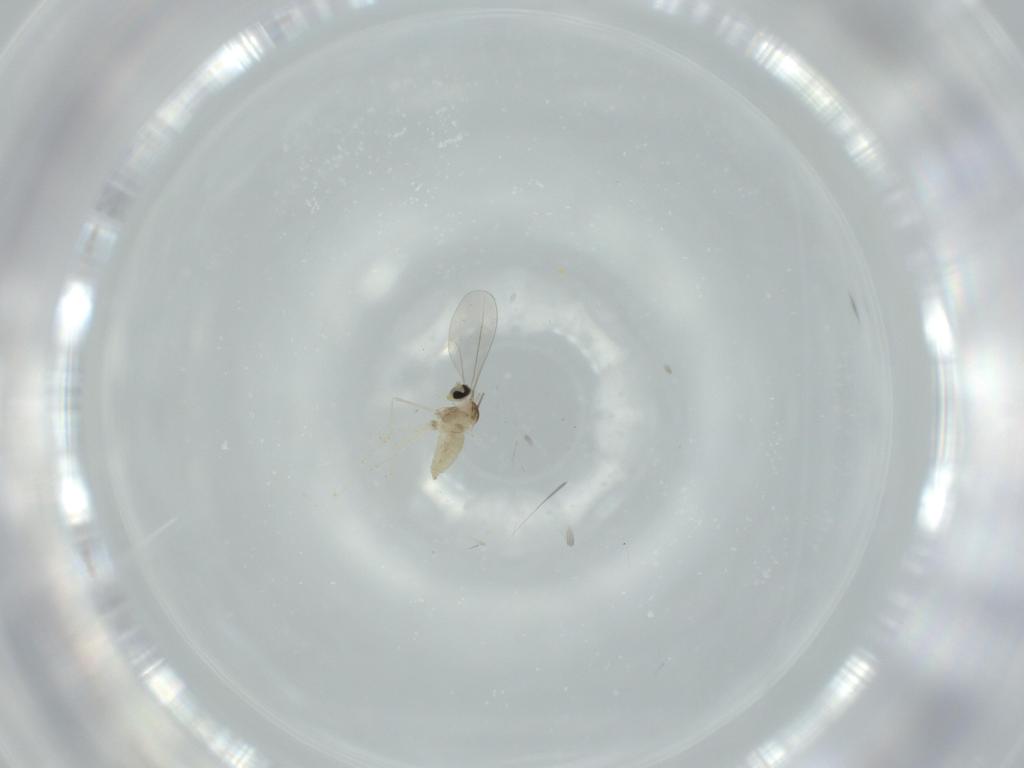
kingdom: Animalia
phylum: Arthropoda
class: Insecta
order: Diptera
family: Cecidomyiidae
